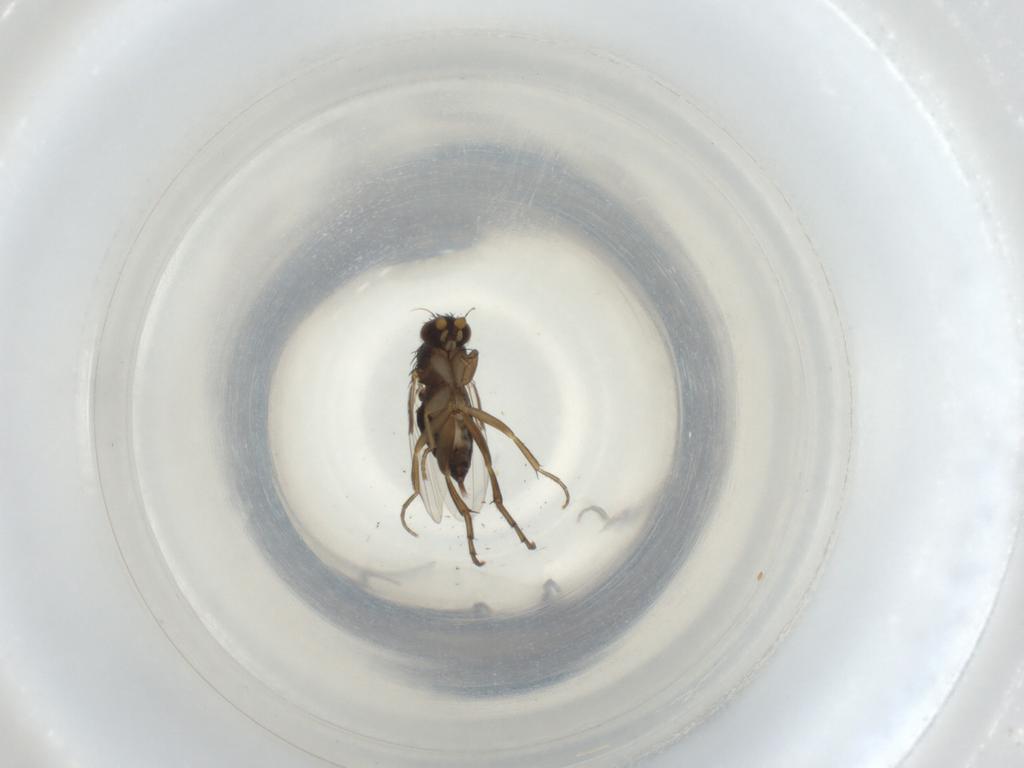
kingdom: Animalia
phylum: Arthropoda
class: Insecta
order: Diptera
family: Phoridae
